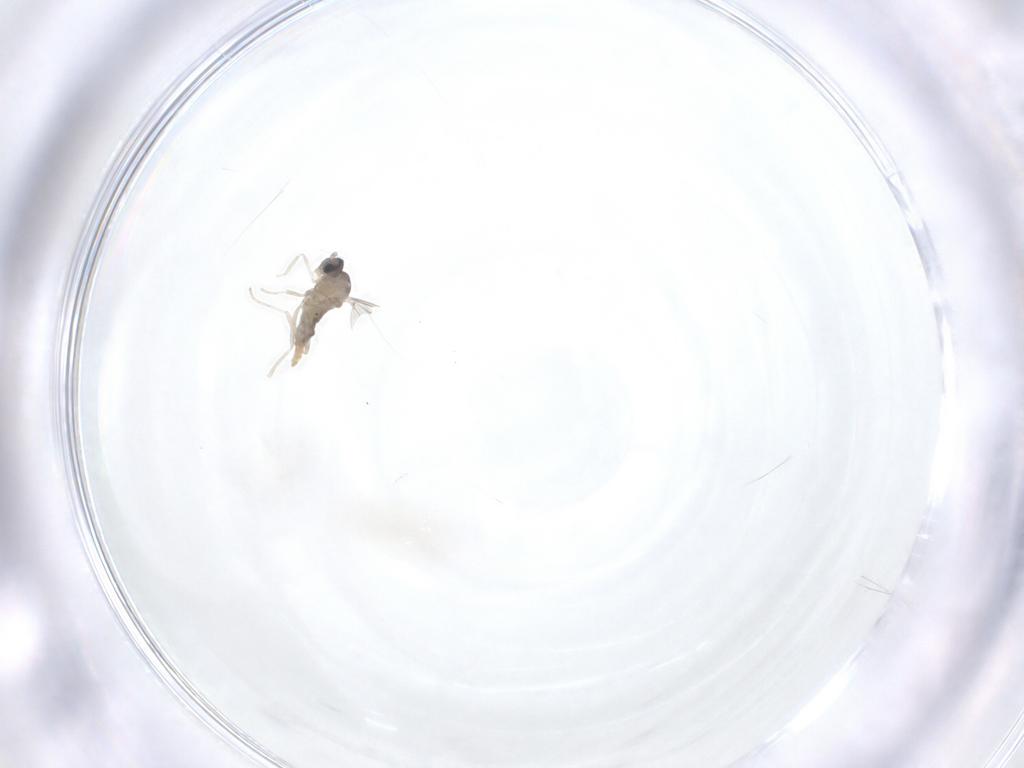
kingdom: Animalia
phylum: Arthropoda
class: Insecta
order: Diptera
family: Cecidomyiidae
